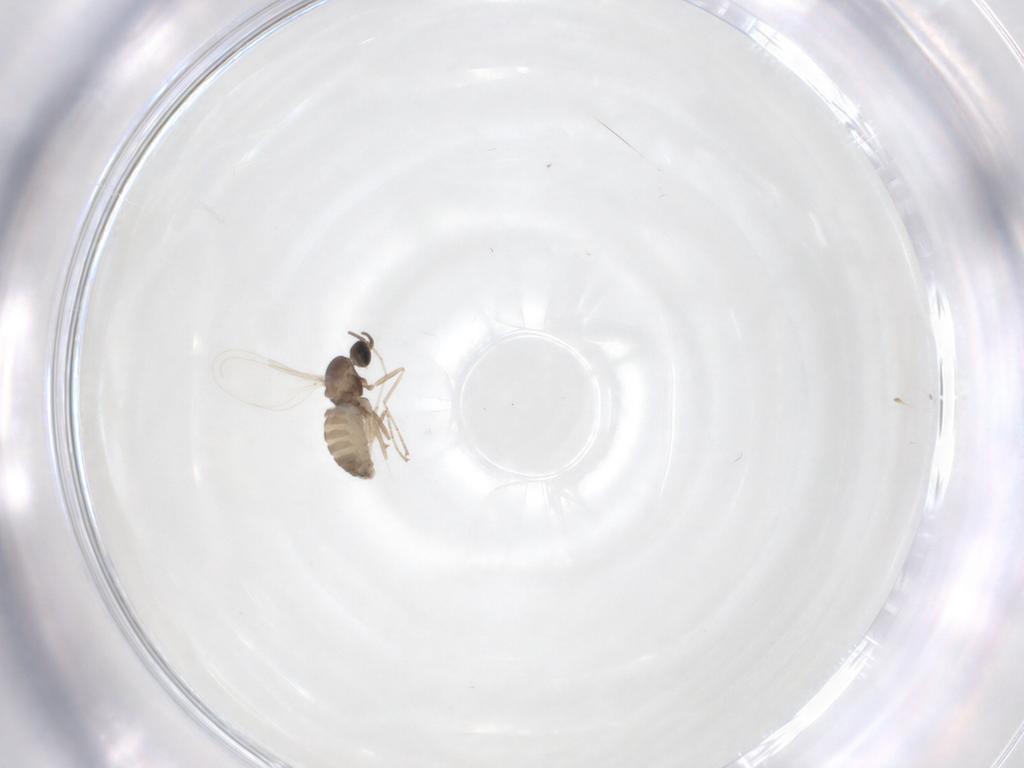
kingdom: Animalia
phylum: Arthropoda
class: Insecta
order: Diptera
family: Cecidomyiidae
